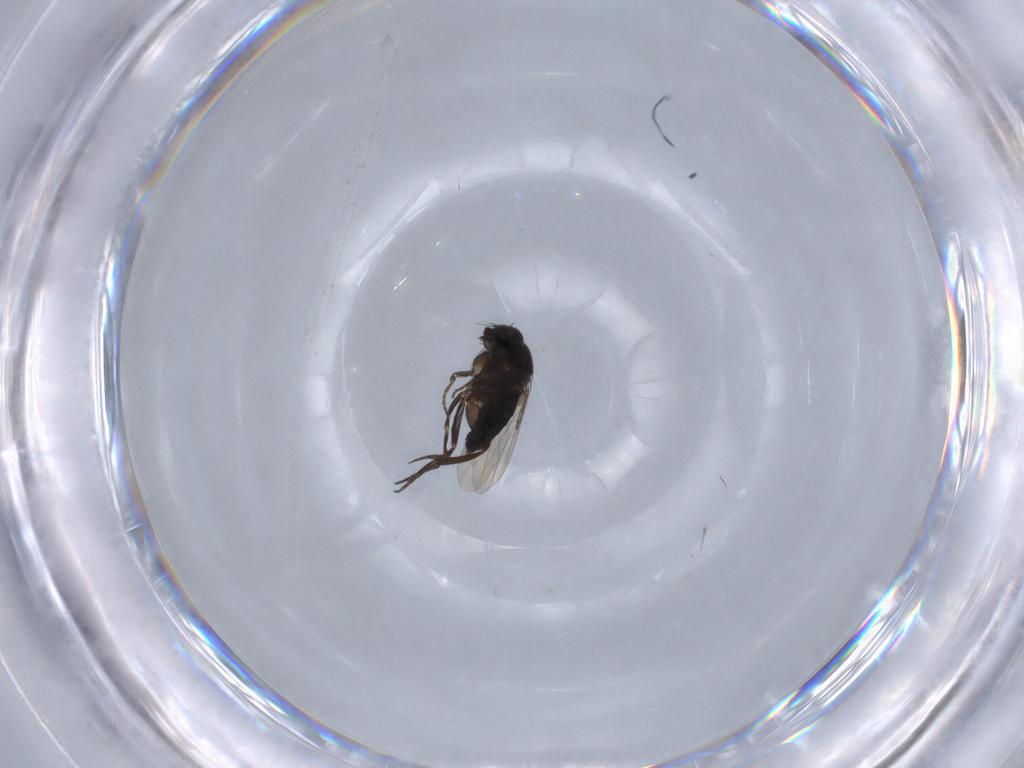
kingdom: Animalia
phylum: Arthropoda
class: Insecta
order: Diptera
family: Phoridae
